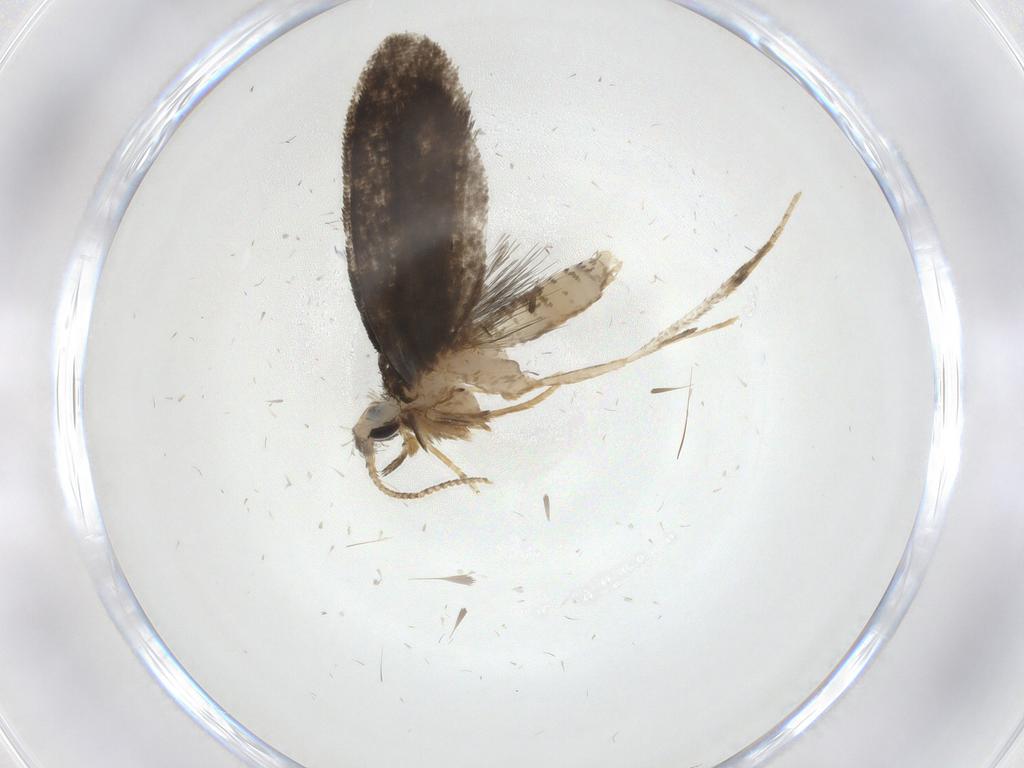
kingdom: Animalia
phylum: Arthropoda
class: Insecta
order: Lepidoptera
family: Psychidae
